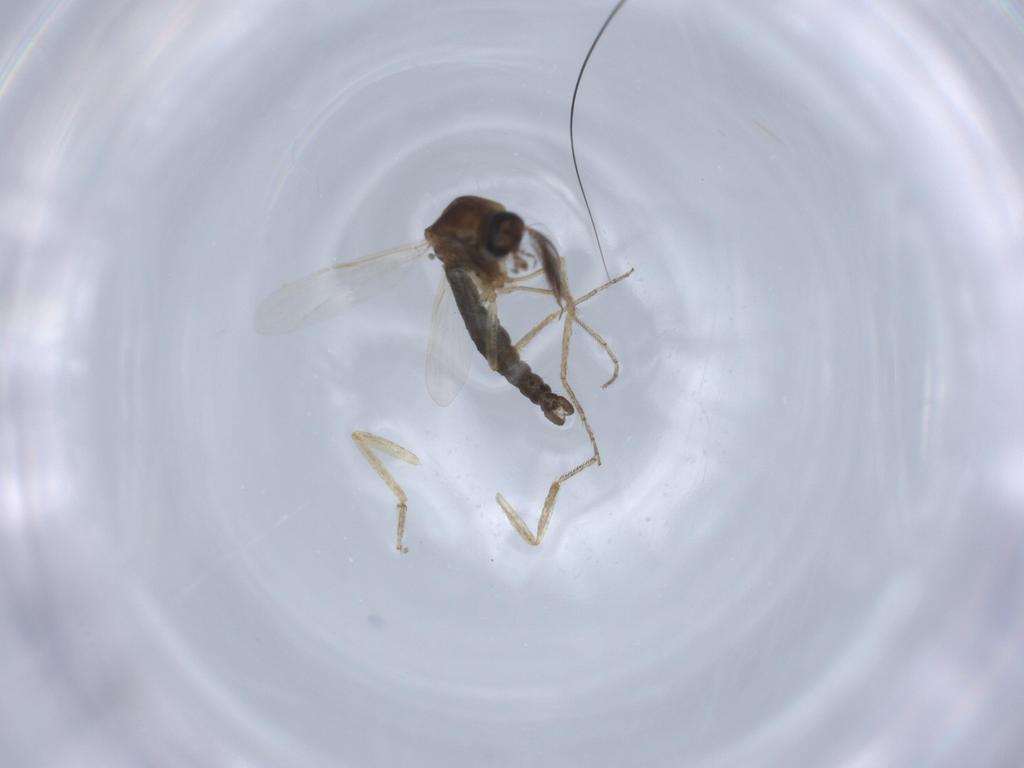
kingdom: Animalia
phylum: Arthropoda
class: Insecta
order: Diptera
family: Ceratopogonidae
